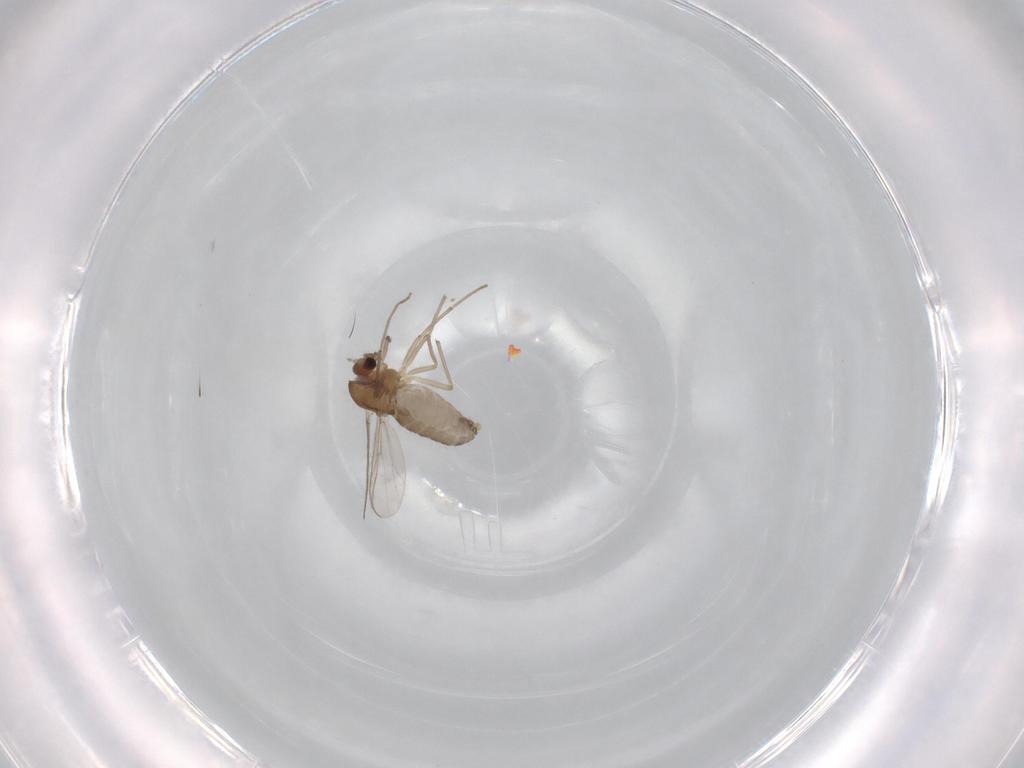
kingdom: Animalia
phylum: Arthropoda
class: Insecta
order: Diptera
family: Chironomidae
